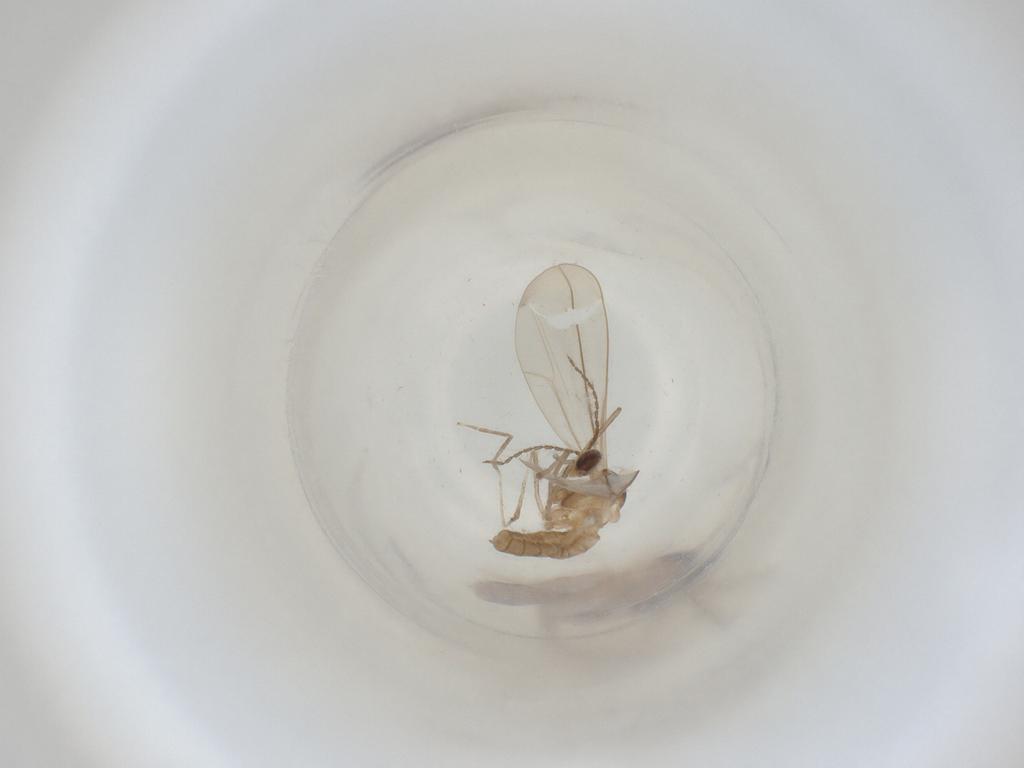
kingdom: Animalia
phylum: Arthropoda
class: Insecta
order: Diptera
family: Cecidomyiidae
